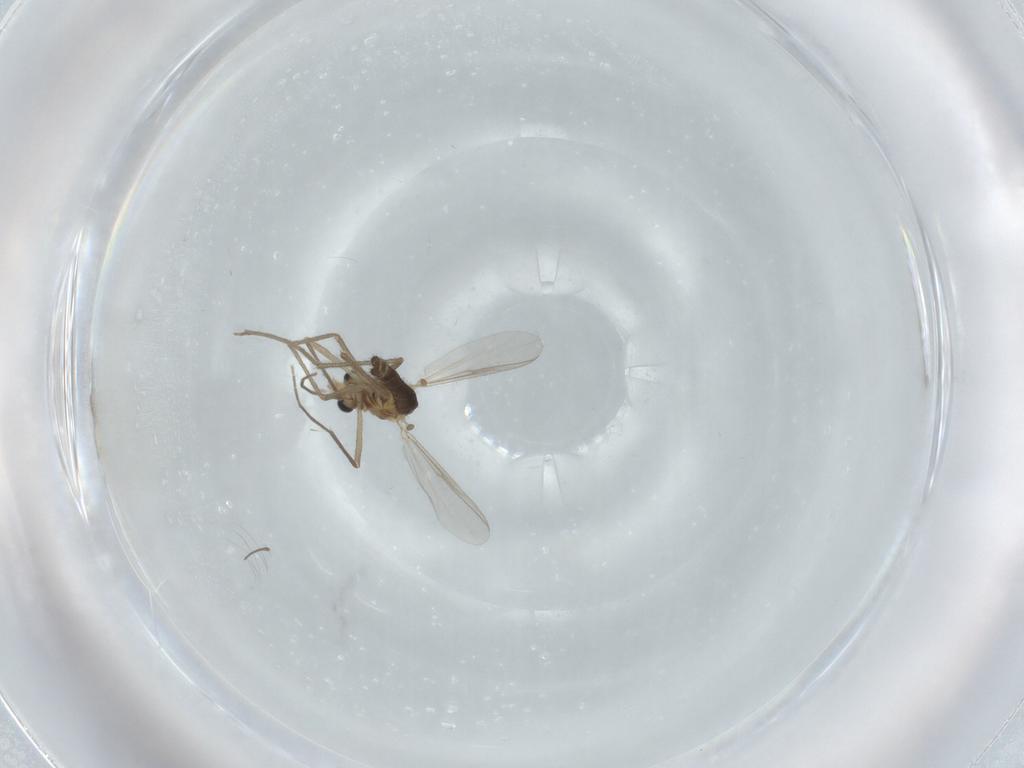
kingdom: Animalia
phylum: Arthropoda
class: Insecta
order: Diptera
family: Chironomidae
